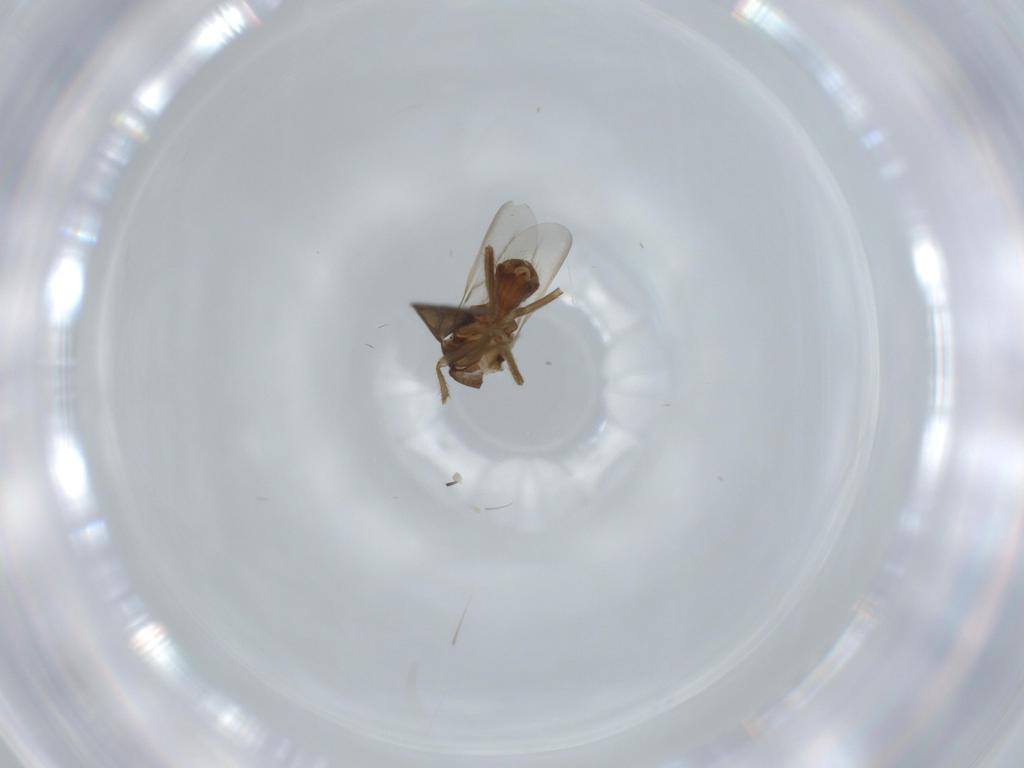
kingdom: Animalia
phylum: Arthropoda
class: Insecta
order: Hemiptera
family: Ceratocombidae
